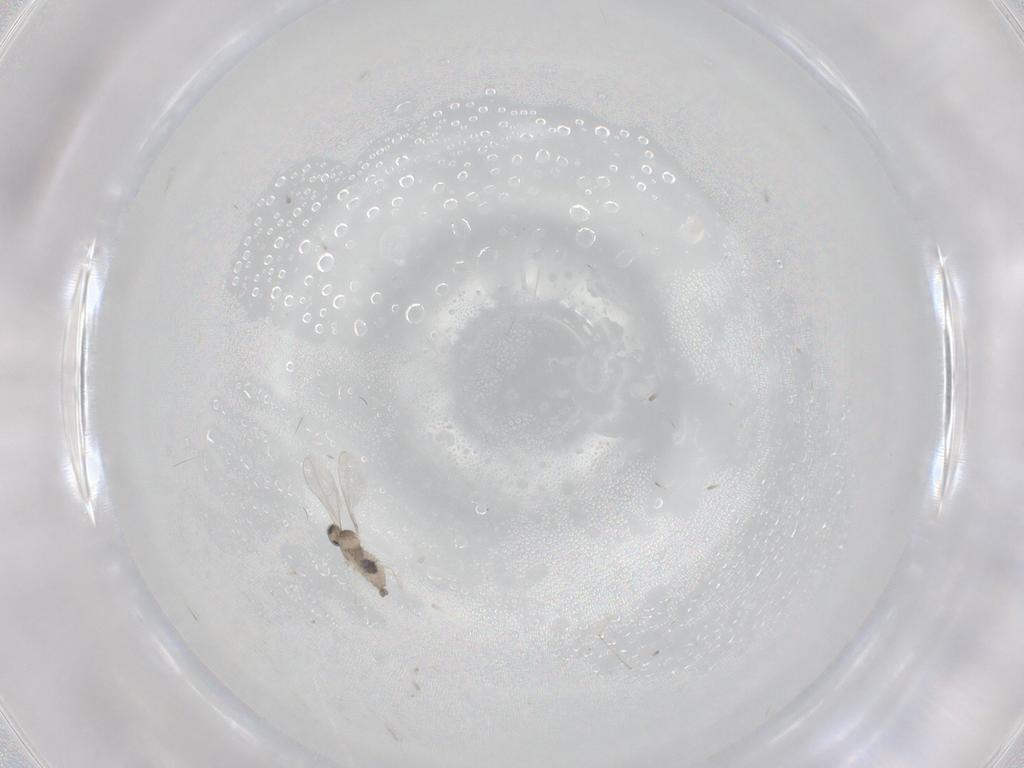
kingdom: Animalia
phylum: Arthropoda
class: Insecta
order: Diptera
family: Cecidomyiidae
